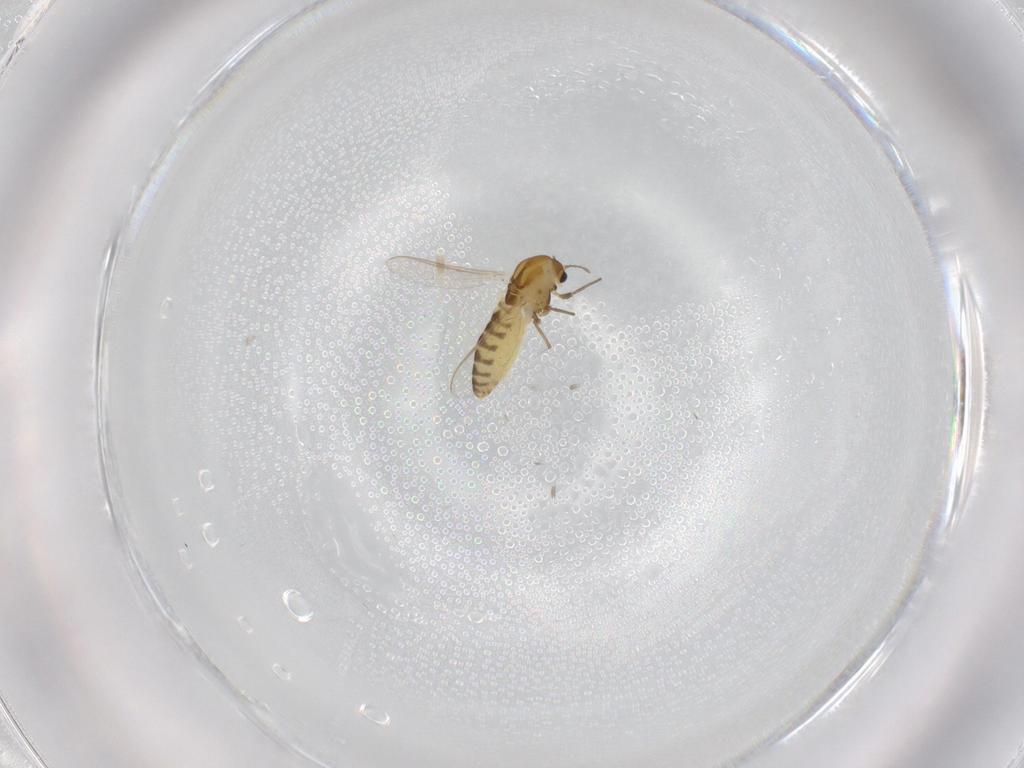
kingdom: Animalia
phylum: Arthropoda
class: Insecta
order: Diptera
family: Chironomidae
